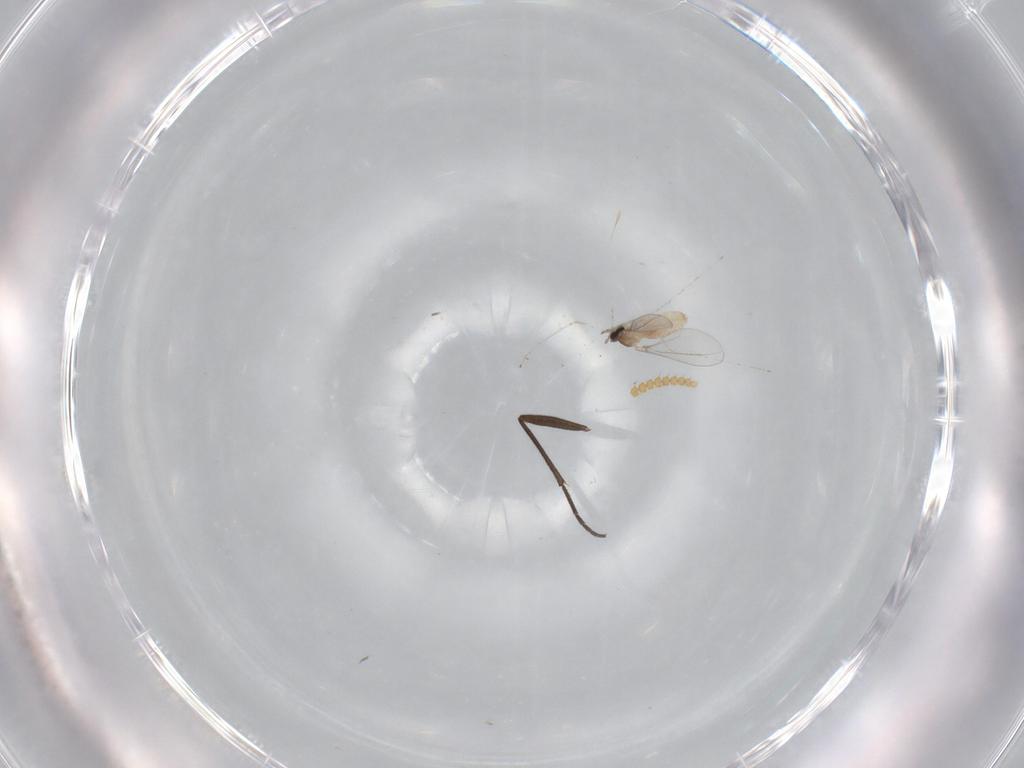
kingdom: Animalia
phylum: Arthropoda
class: Insecta
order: Diptera
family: Cecidomyiidae
